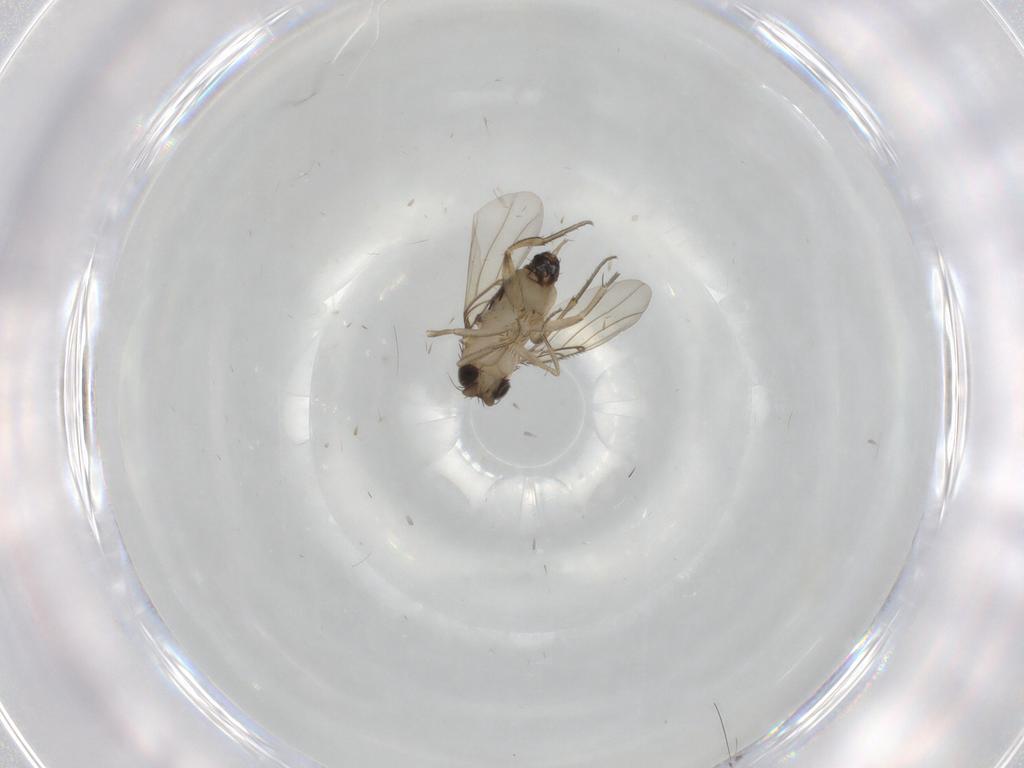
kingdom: Animalia
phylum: Arthropoda
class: Insecta
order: Diptera
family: Phoridae
